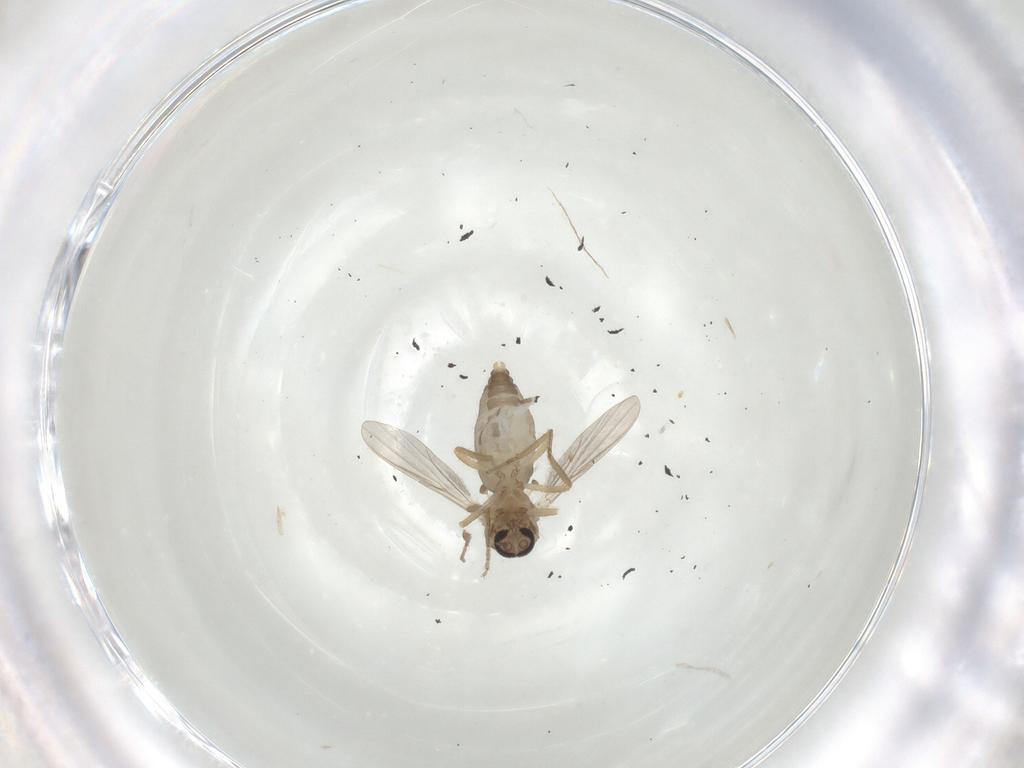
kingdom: Animalia
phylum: Arthropoda
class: Insecta
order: Diptera
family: Ceratopogonidae
